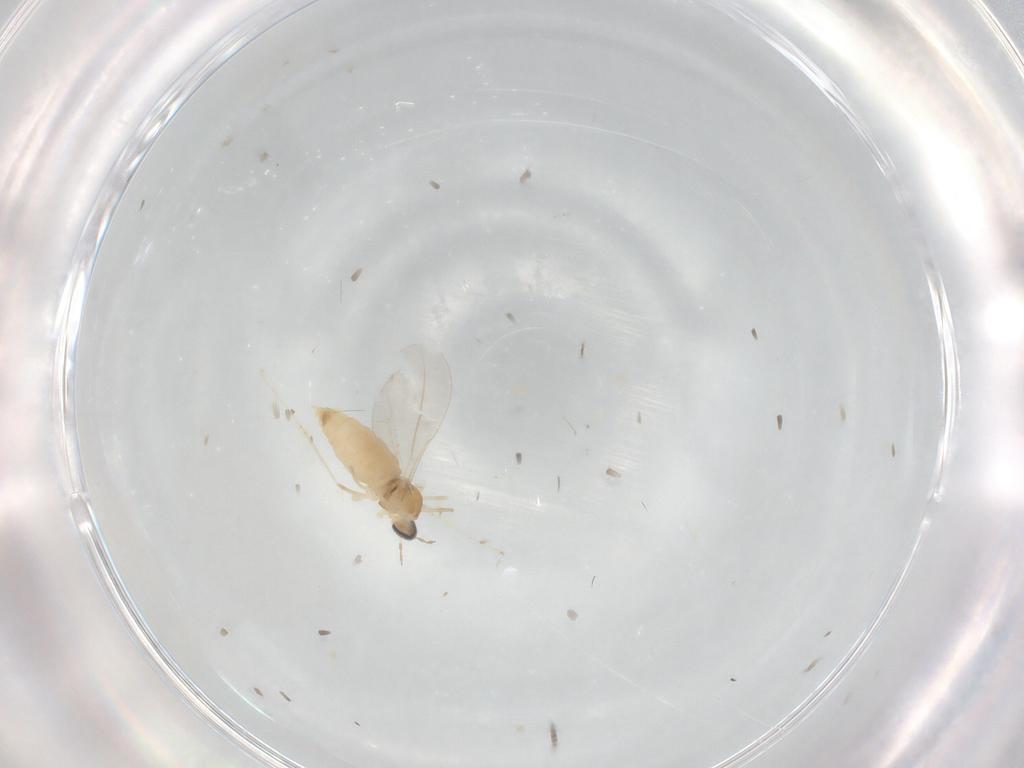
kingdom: Animalia
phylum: Arthropoda
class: Insecta
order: Diptera
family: Cecidomyiidae
